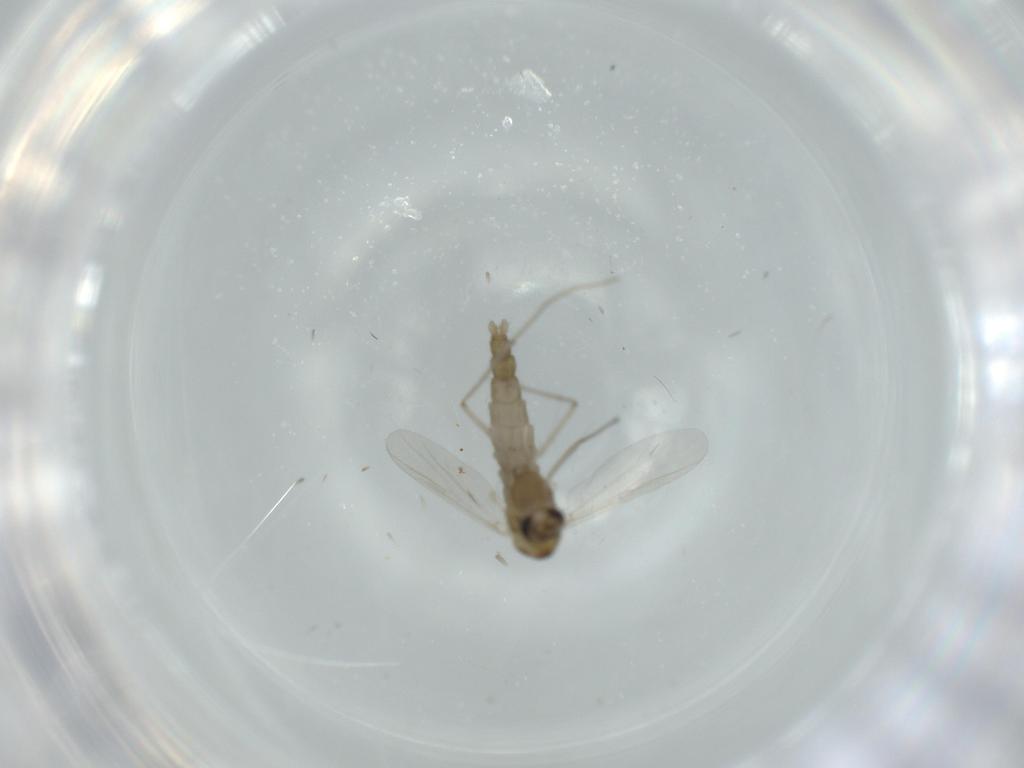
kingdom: Animalia
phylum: Arthropoda
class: Insecta
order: Diptera
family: Chironomidae
